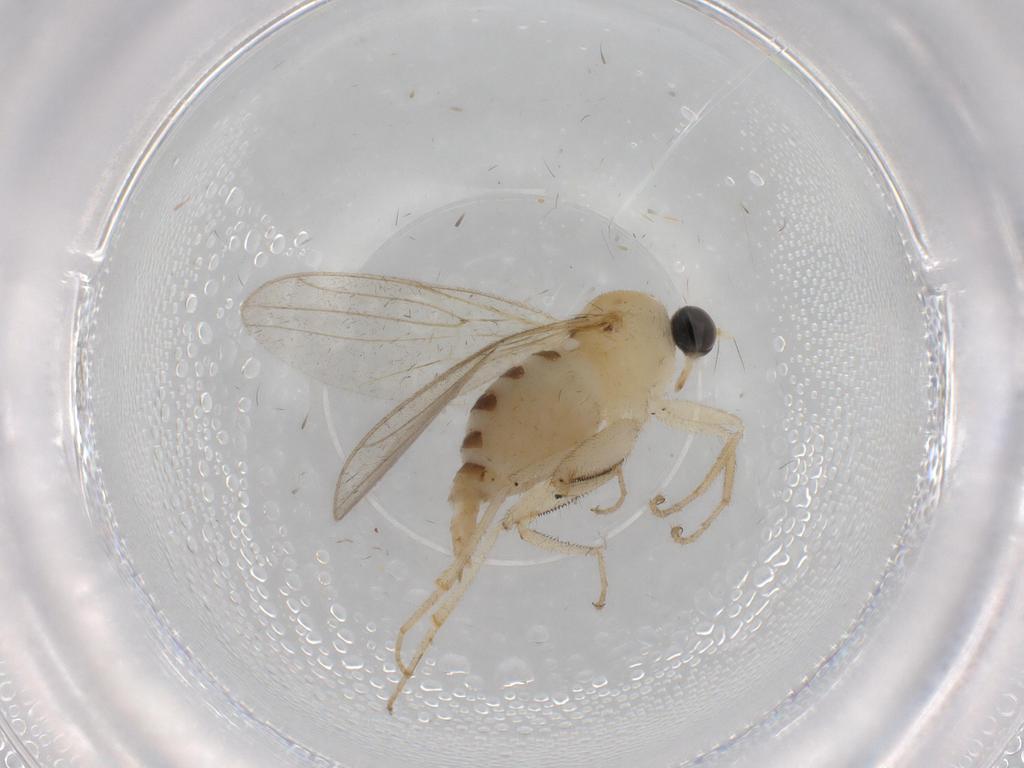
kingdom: Animalia
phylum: Arthropoda
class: Insecta
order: Diptera
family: Hybotidae
